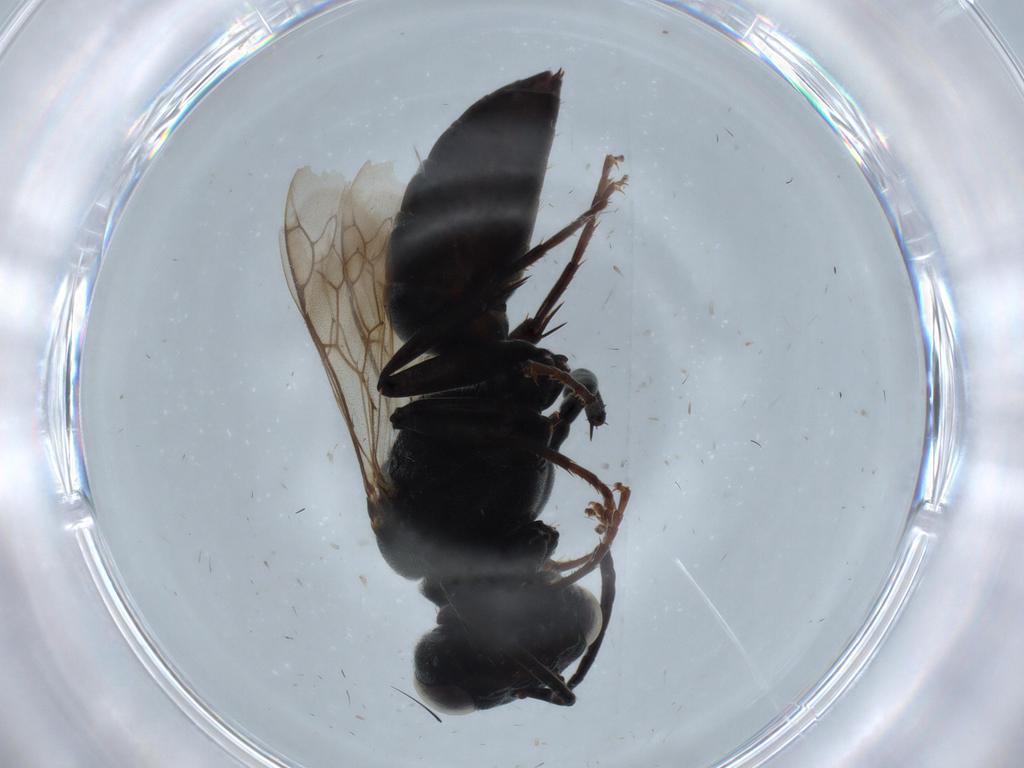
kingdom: Animalia
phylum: Arthropoda
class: Insecta
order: Hymenoptera
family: Crabronidae
